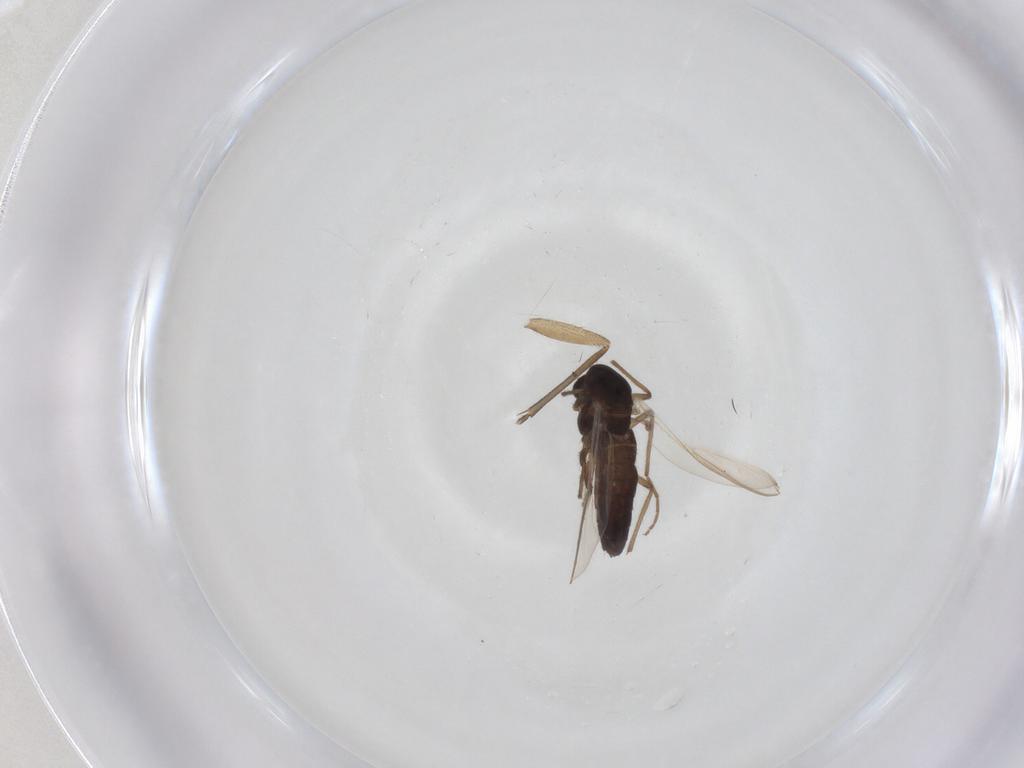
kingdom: Animalia
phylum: Arthropoda
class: Insecta
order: Diptera
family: Sciaridae
